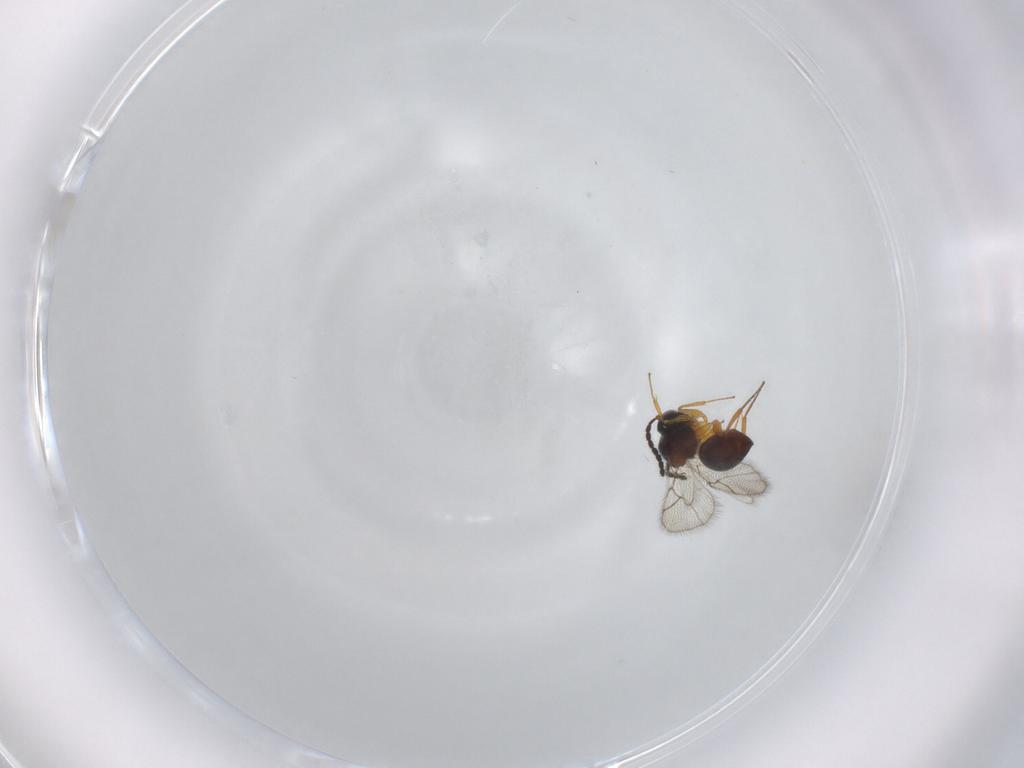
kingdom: Animalia
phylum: Arthropoda
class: Insecta
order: Hymenoptera
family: Figitidae
